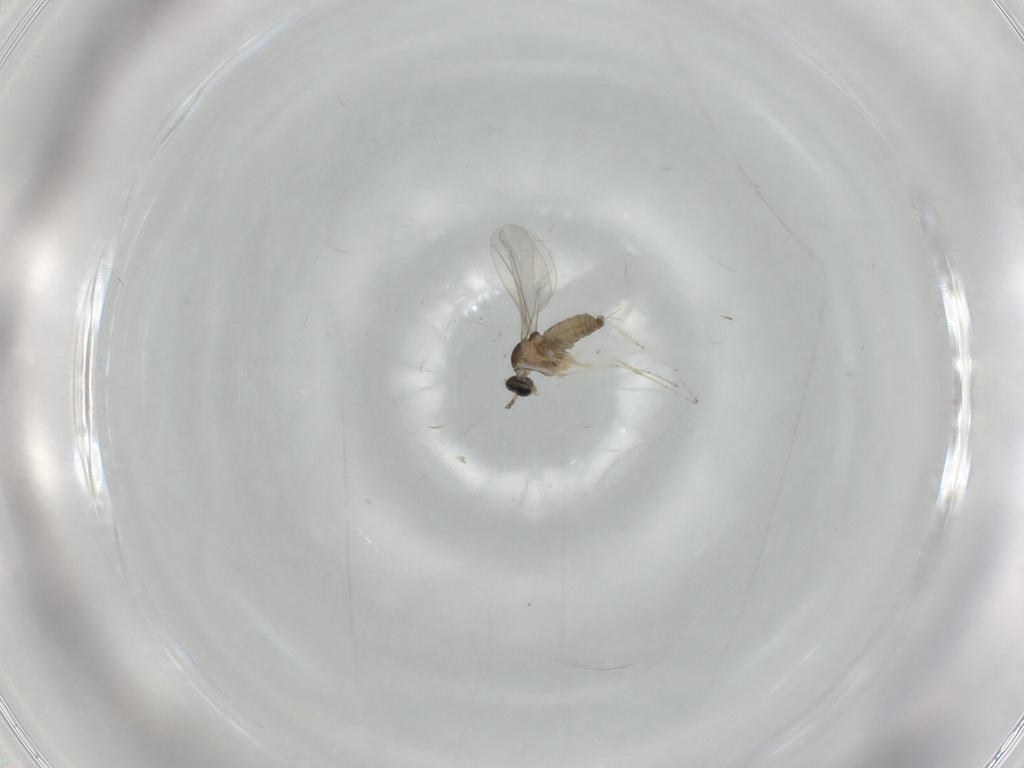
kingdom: Animalia
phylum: Arthropoda
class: Insecta
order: Diptera
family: Cecidomyiidae
